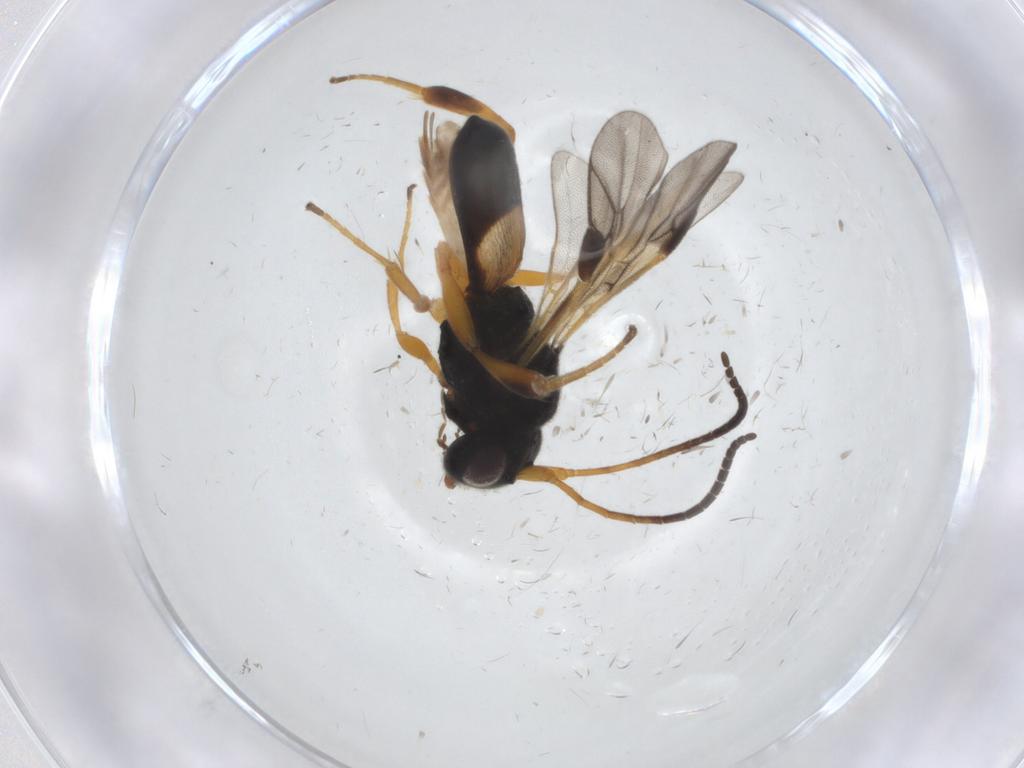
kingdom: Animalia
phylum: Arthropoda
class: Insecta
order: Hymenoptera
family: Braconidae
